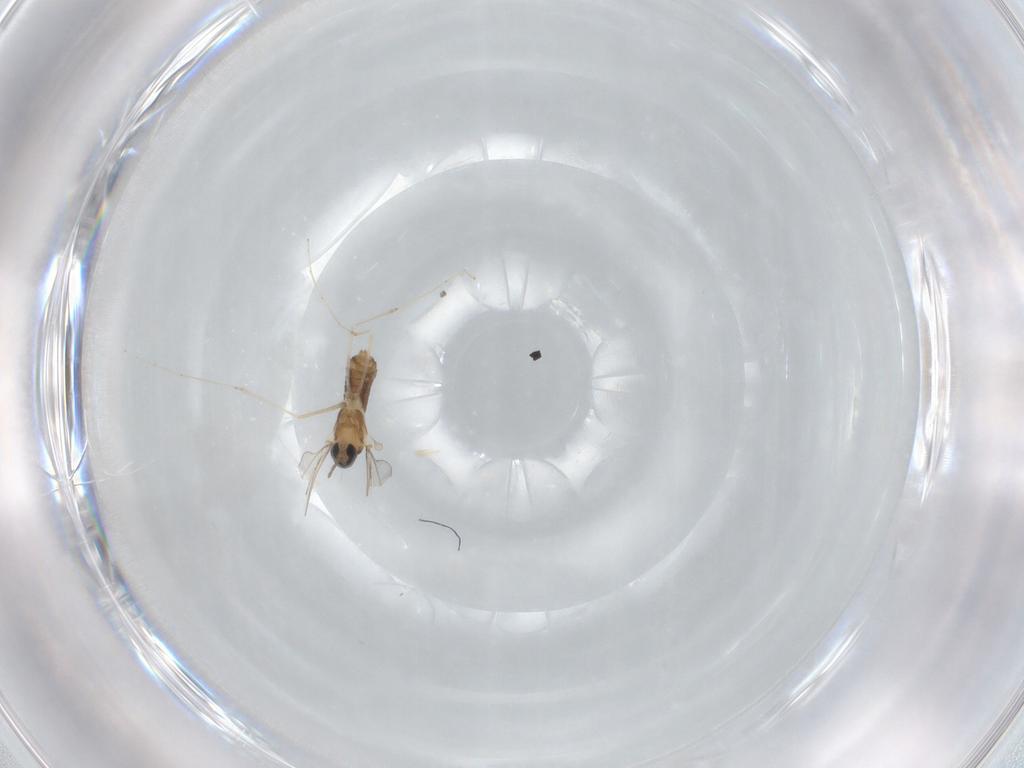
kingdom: Animalia
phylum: Arthropoda
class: Insecta
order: Diptera
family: Cecidomyiidae
